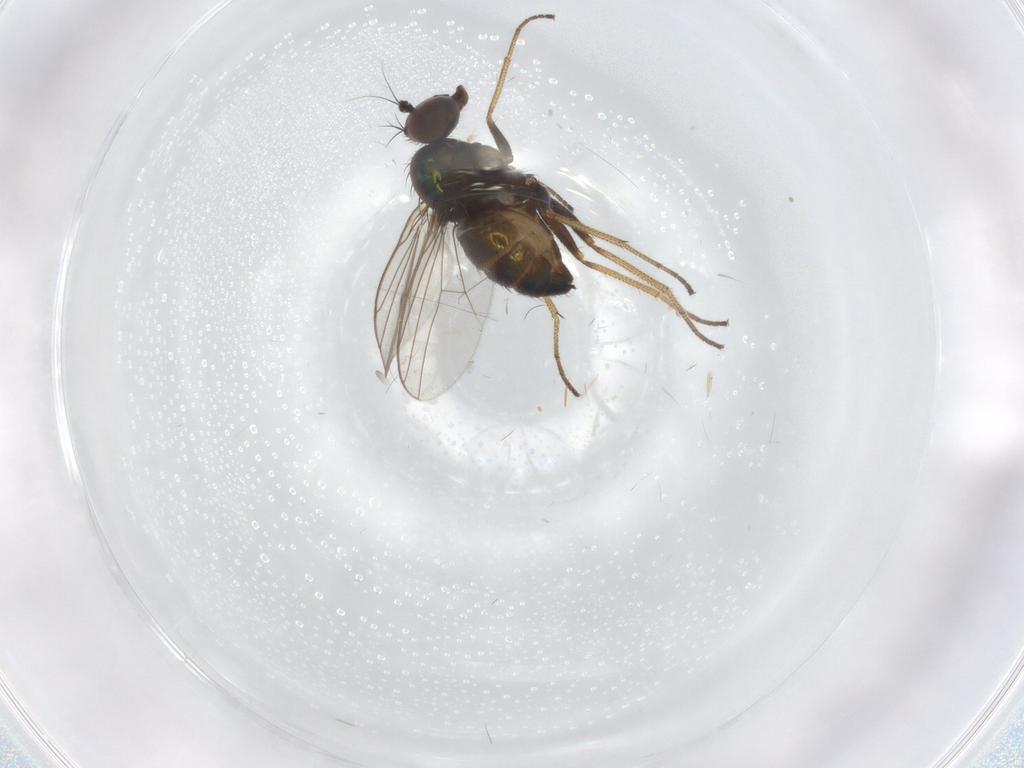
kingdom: Animalia
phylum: Arthropoda
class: Insecta
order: Diptera
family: Dolichopodidae
